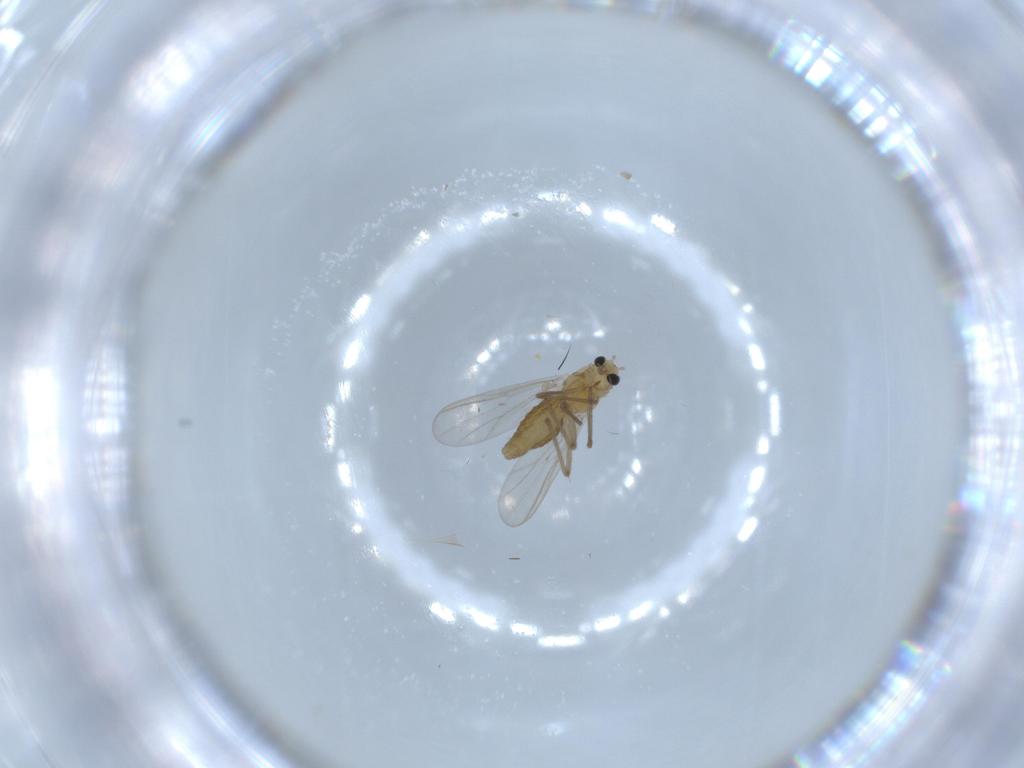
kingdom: Animalia
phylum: Arthropoda
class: Insecta
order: Diptera
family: Chironomidae
